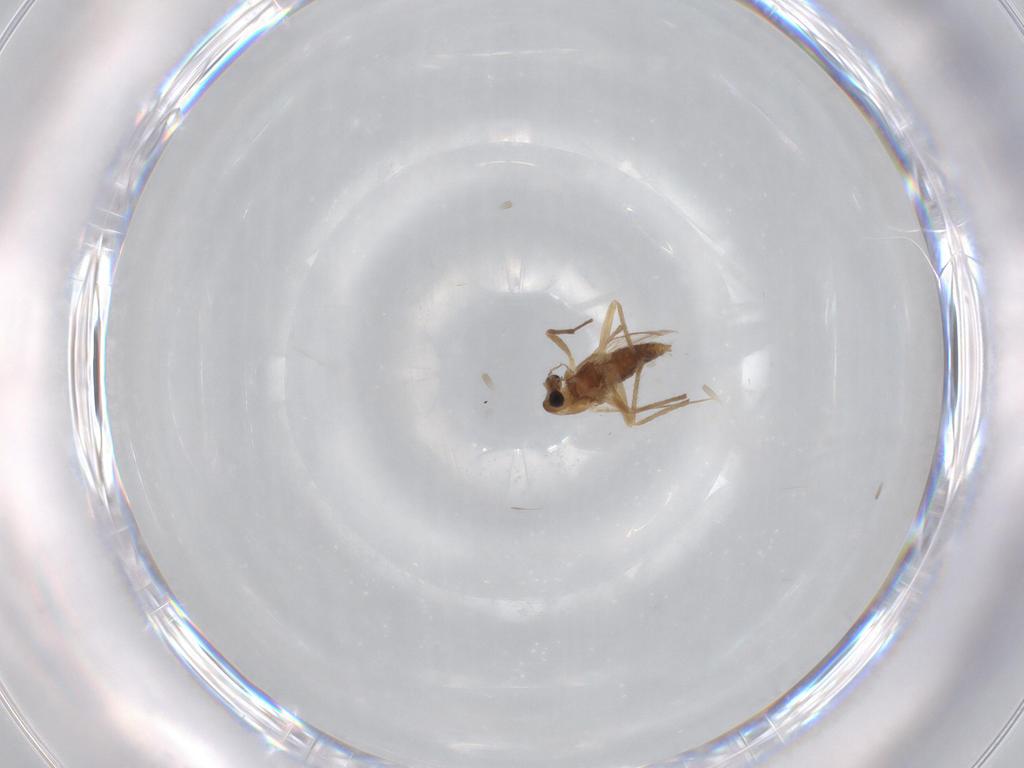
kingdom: Animalia
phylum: Arthropoda
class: Insecta
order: Diptera
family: Chironomidae
